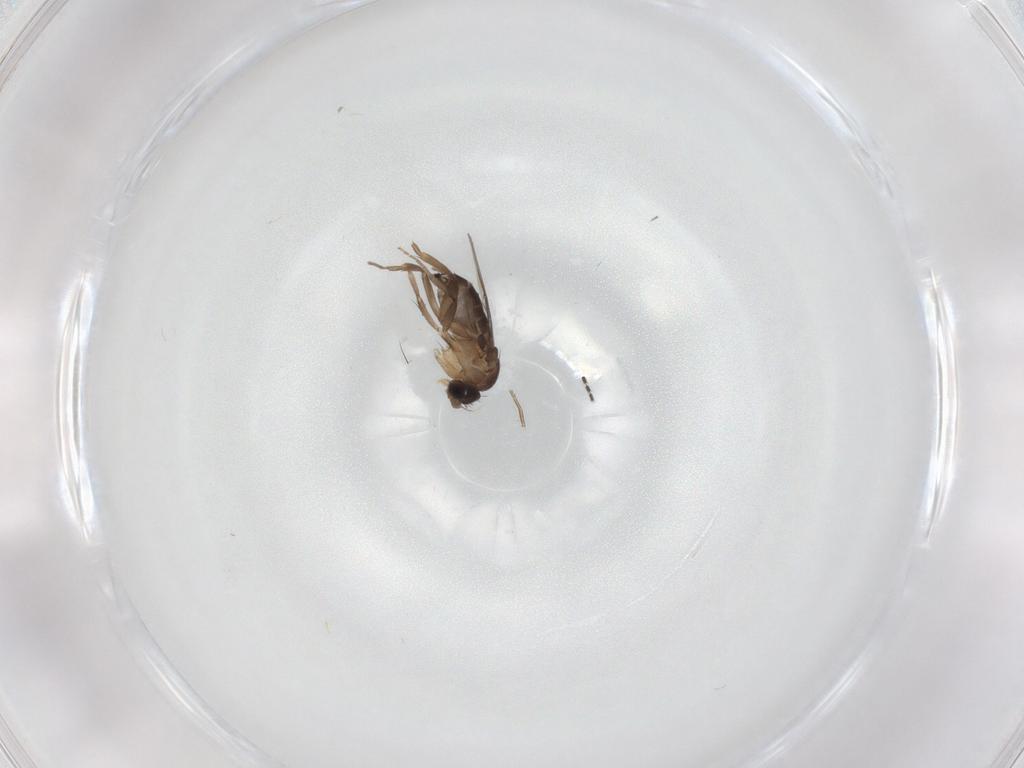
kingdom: Animalia
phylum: Arthropoda
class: Insecta
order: Diptera
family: Phoridae
